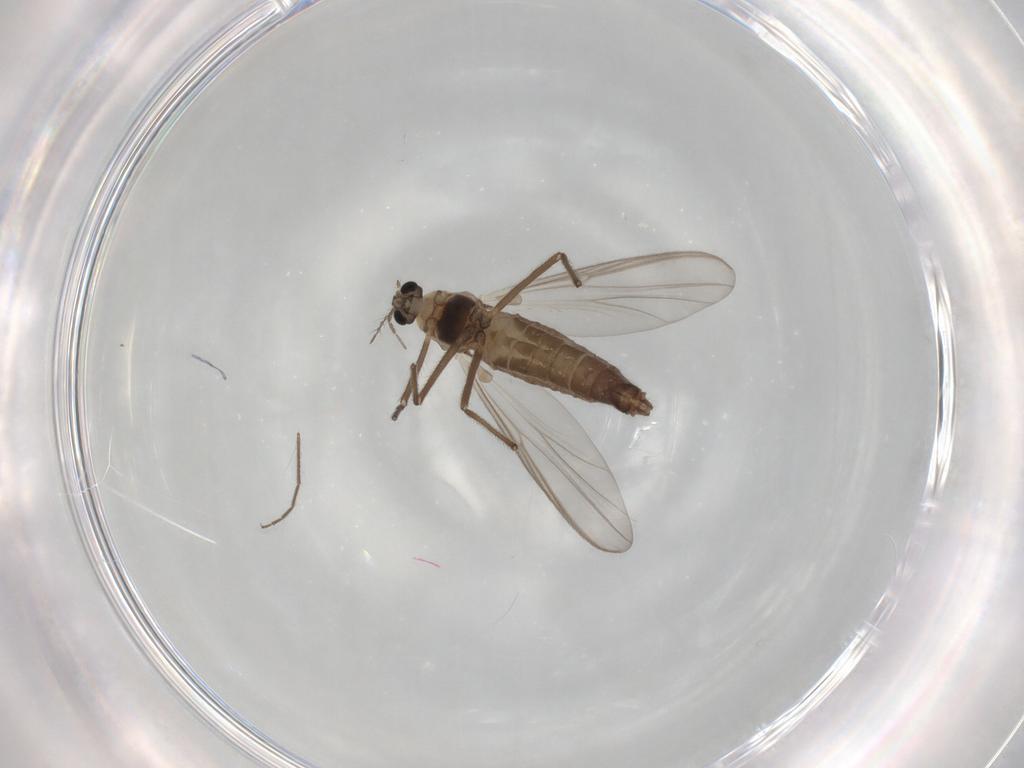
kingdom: Animalia
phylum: Arthropoda
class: Insecta
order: Diptera
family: Chironomidae
